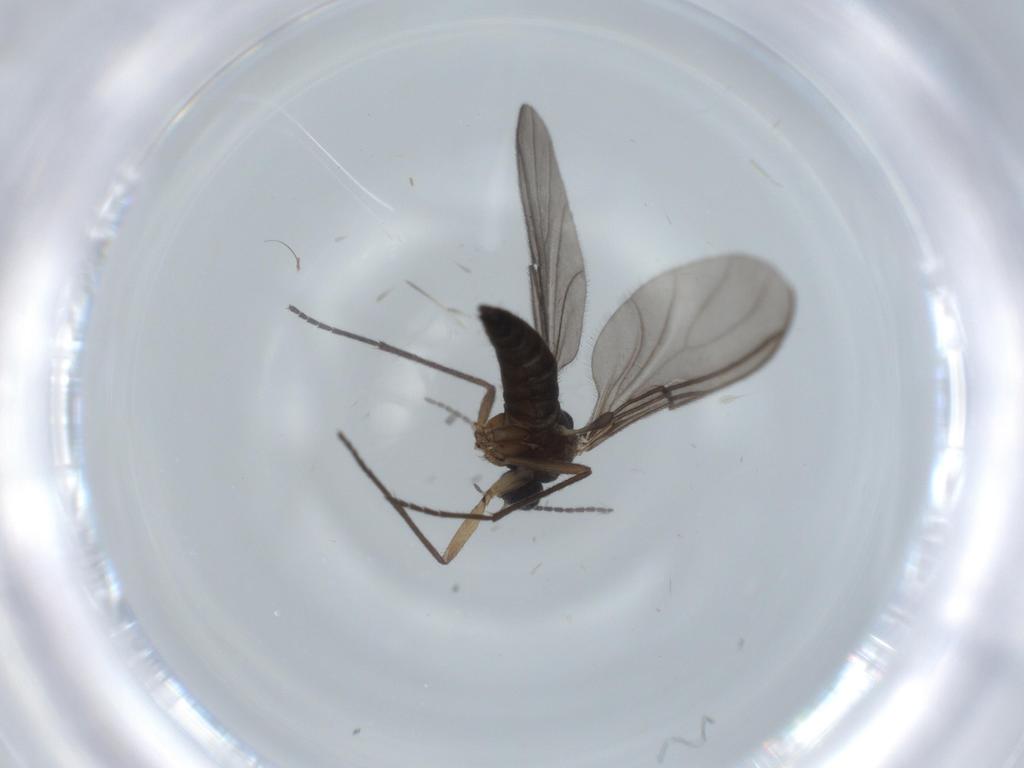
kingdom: Animalia
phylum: Arthropoda
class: Insecta
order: Diptera
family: Sciaridae
